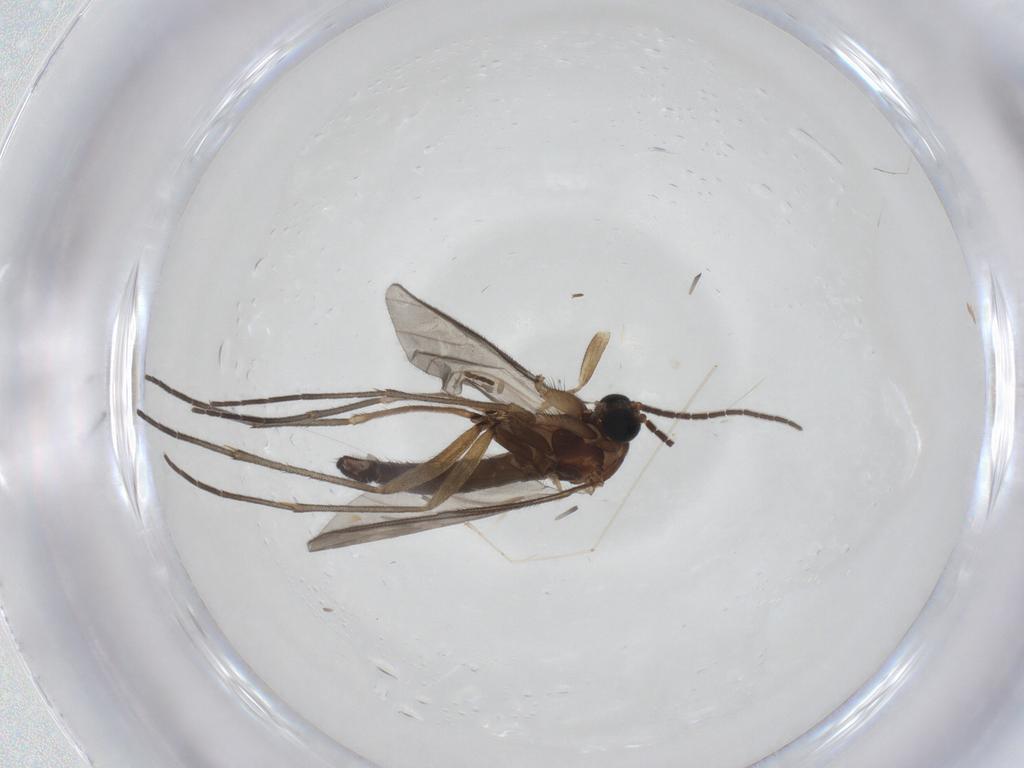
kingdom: Animalia
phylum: Arthropoda
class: Insecta
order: Diptera
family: Sciaridae
